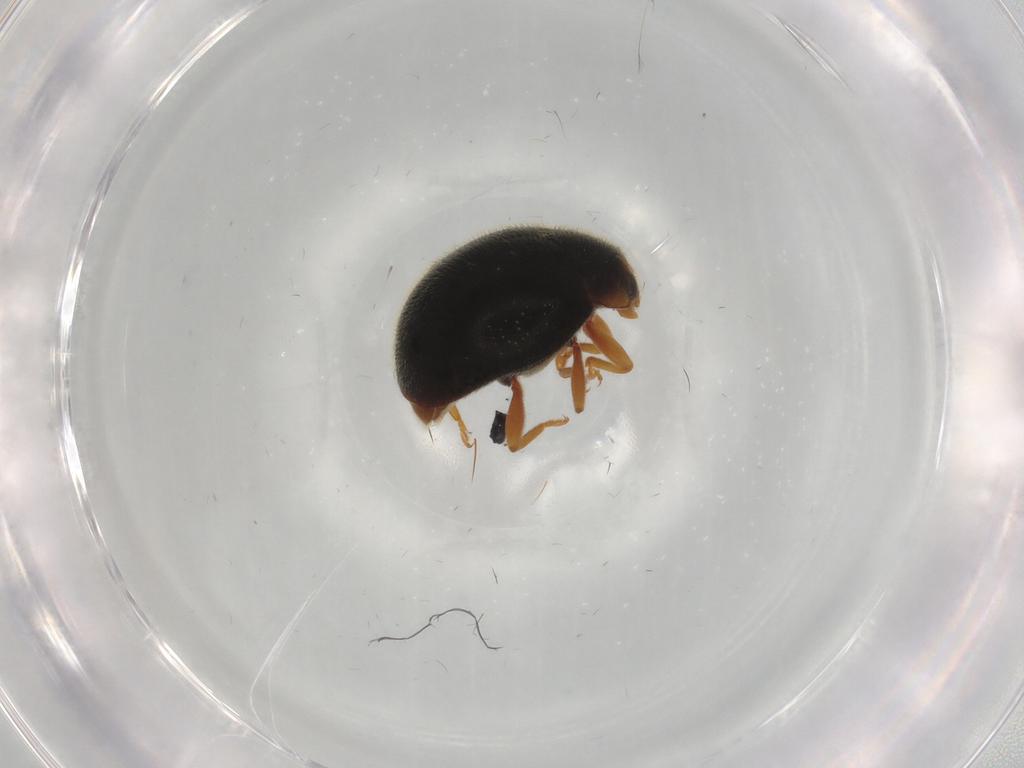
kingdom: Animalia
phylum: Arthropoda
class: Insecta
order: Coleoptera
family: Coccinellidae
